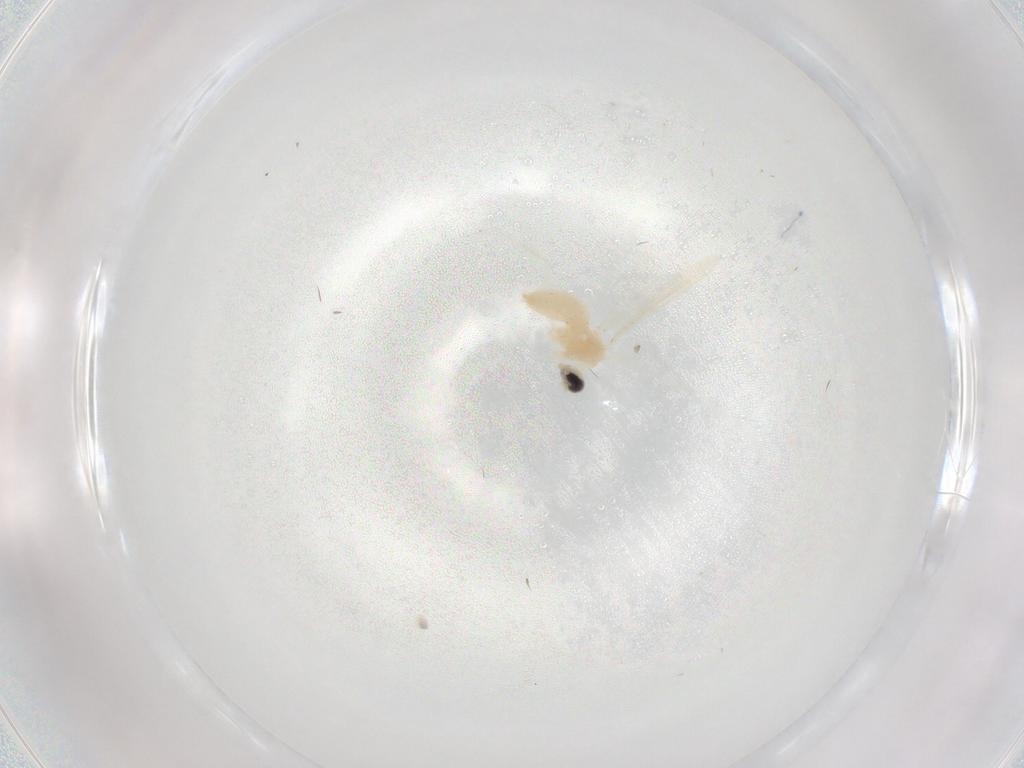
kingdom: Animalia
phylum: Arthropoda
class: Insecta
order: Diptera
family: Cecidomyiidae
